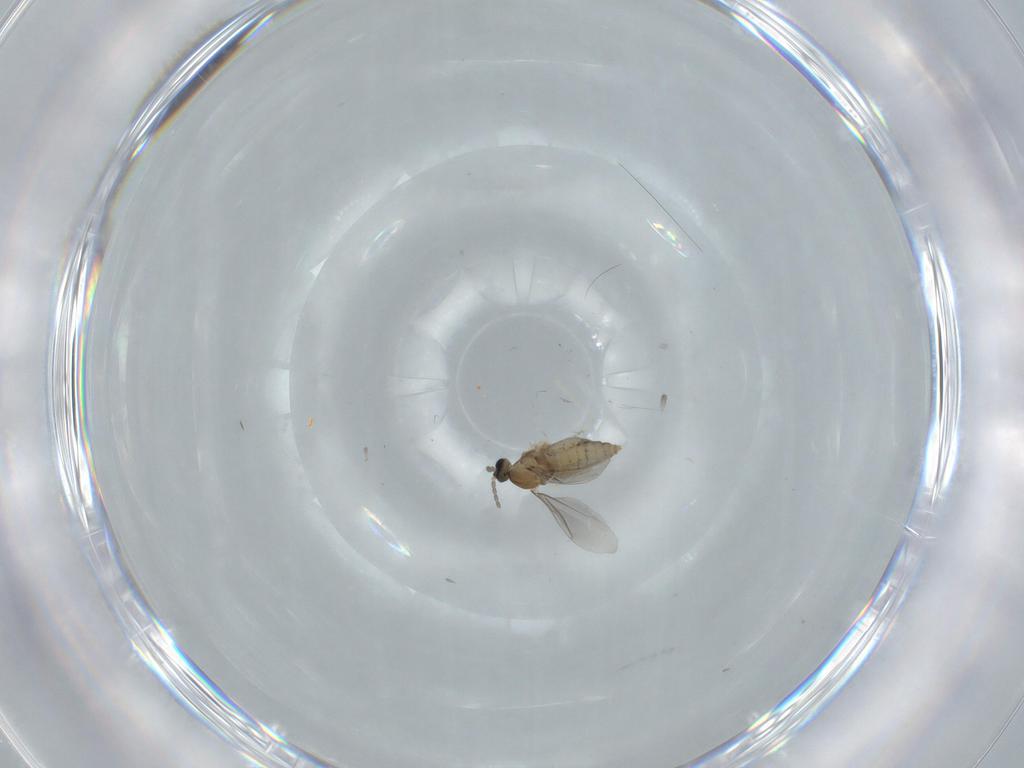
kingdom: Animalia
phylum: Arthropoda
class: Insecta
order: Diptera
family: Cecidomyiidae
